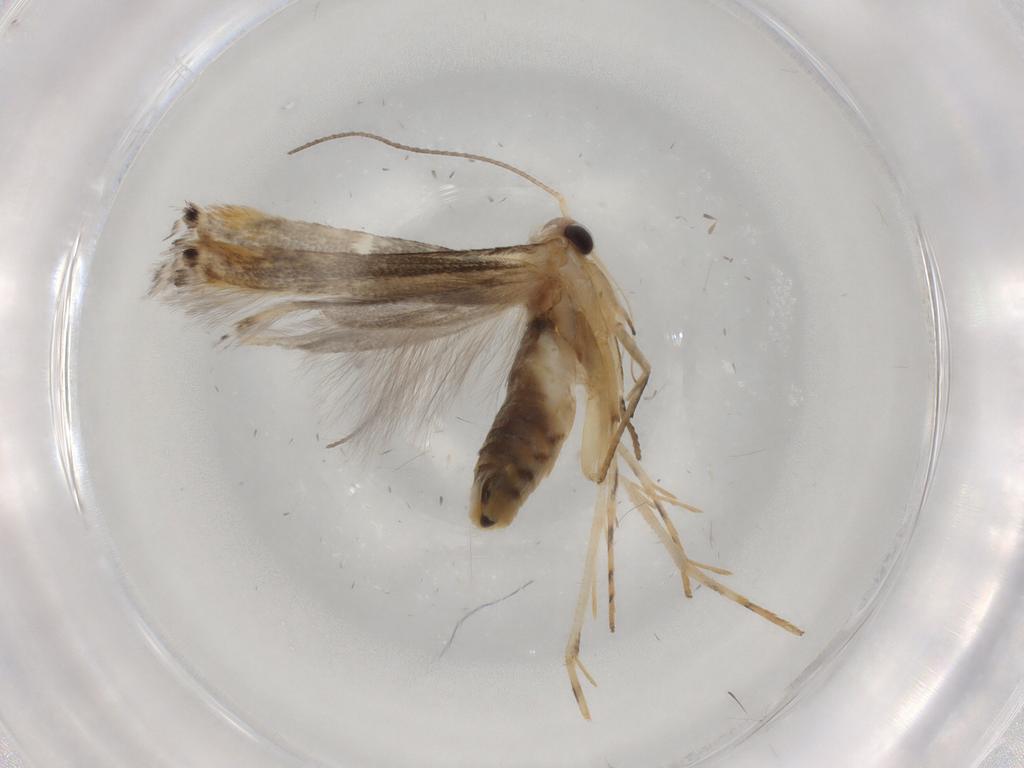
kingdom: Animalia
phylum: Arthropoda
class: Insecta
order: Lepidoptera
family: Gelechiidae
